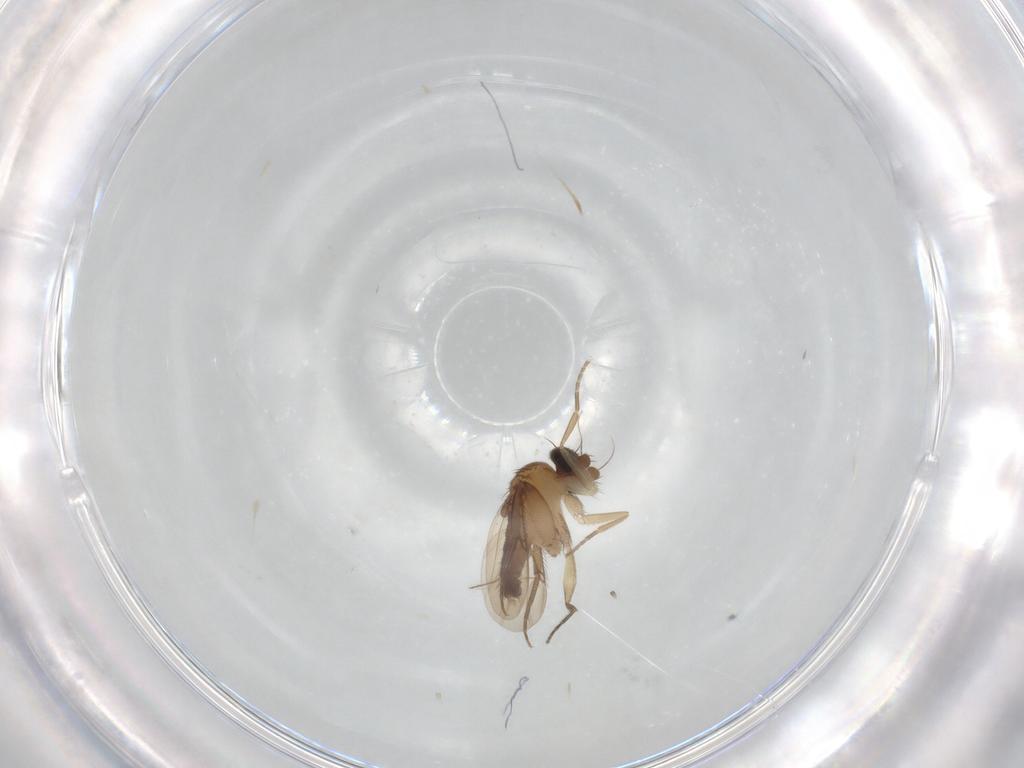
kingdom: Animalia
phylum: Arthropoda
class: Insecta
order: Diptera
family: Phoridae
